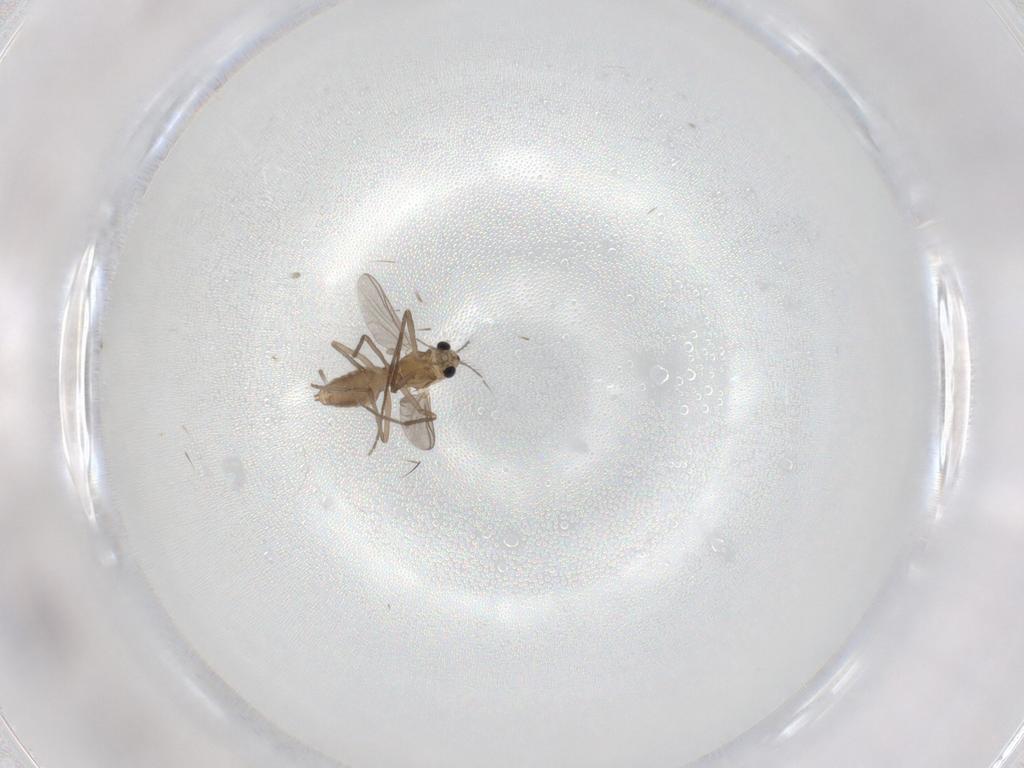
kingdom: Animalia
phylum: Arthropoda
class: Insecta
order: Diptera
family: Chironomidae
